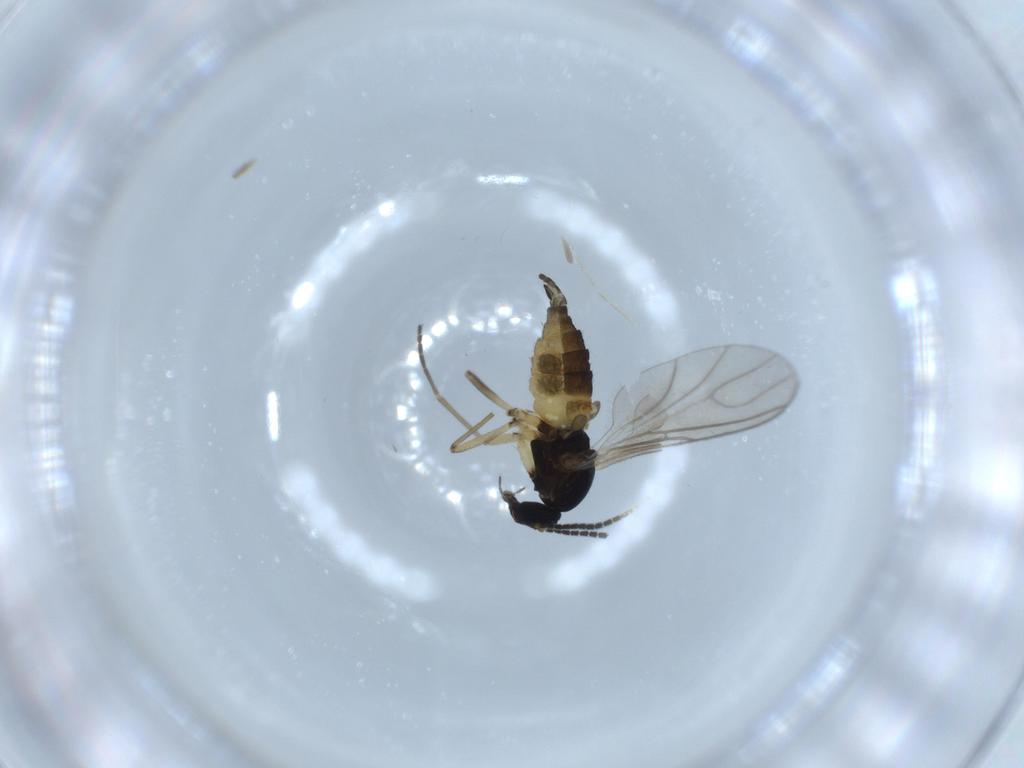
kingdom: Animalia
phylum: Arthropoda
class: Insecta
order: Diptera
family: Sciaridae
